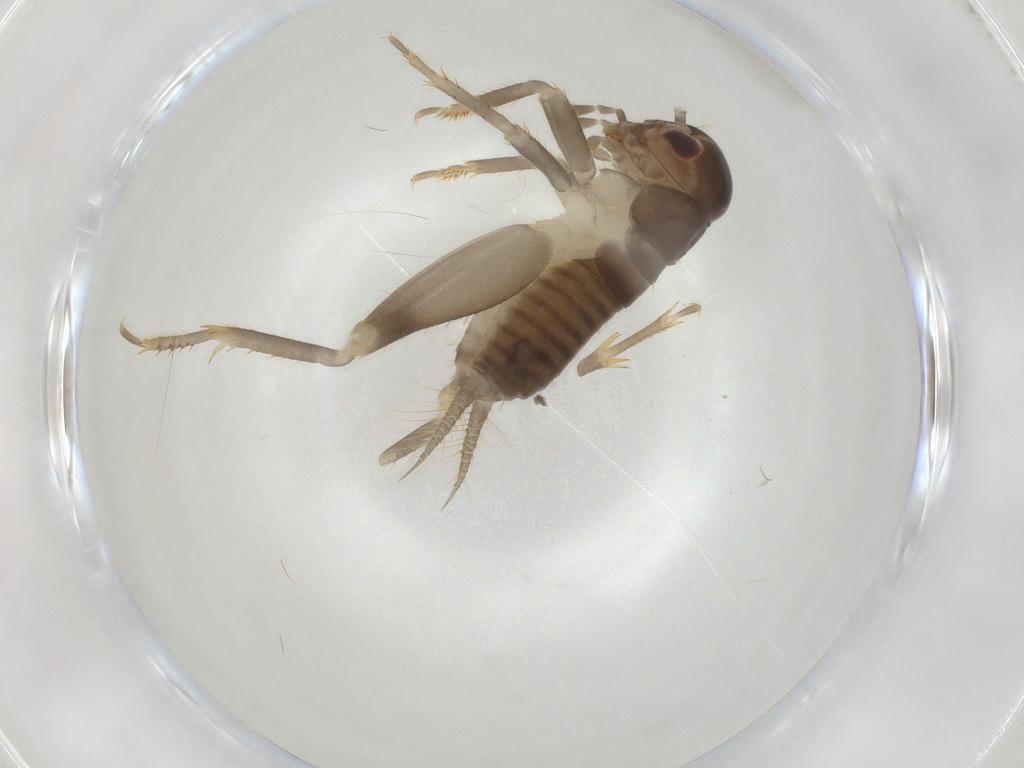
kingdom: Animalia
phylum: Arthropoda
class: Insecta
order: Orthoptera
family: Gryllidae
